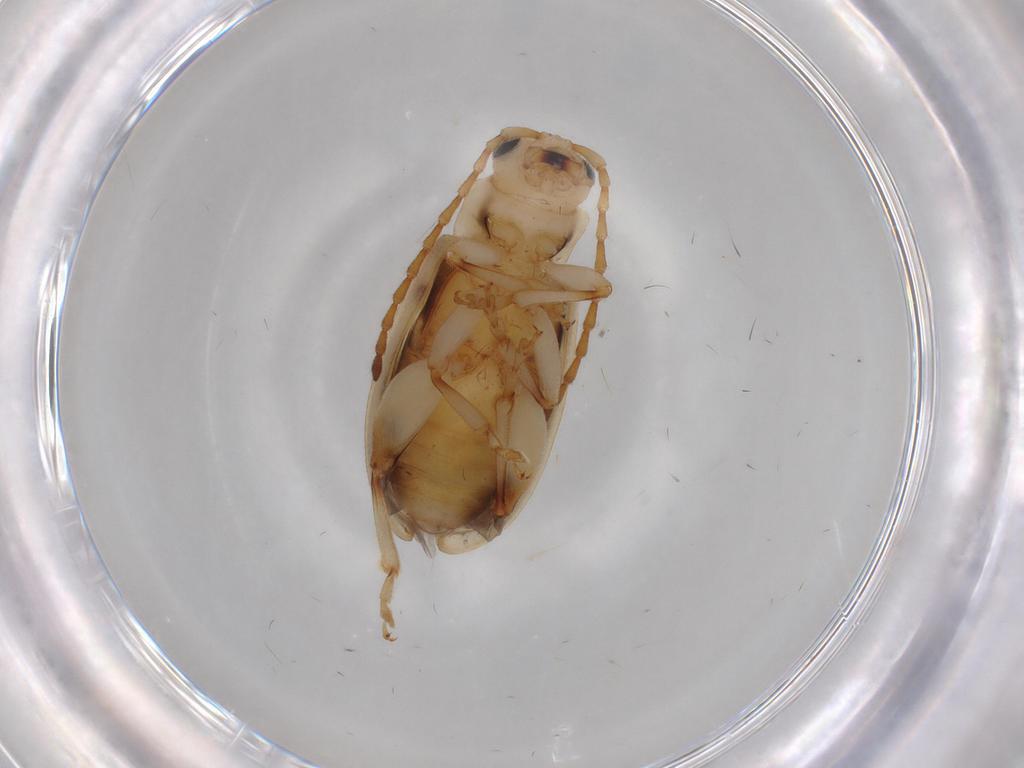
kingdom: Animalia
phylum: Arthropoda
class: Insecta
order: Coleoptera
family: Chrysomelidae
